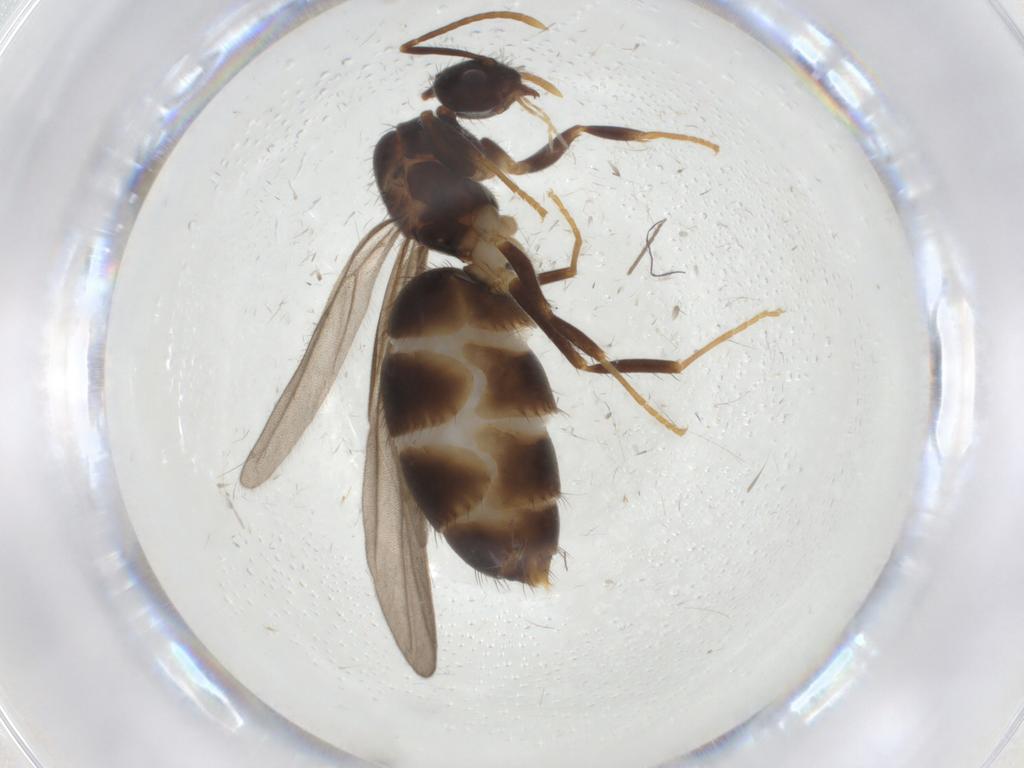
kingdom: Animalia
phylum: Arthropoda
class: Insecta
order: Hymenoptera
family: Formicidae
